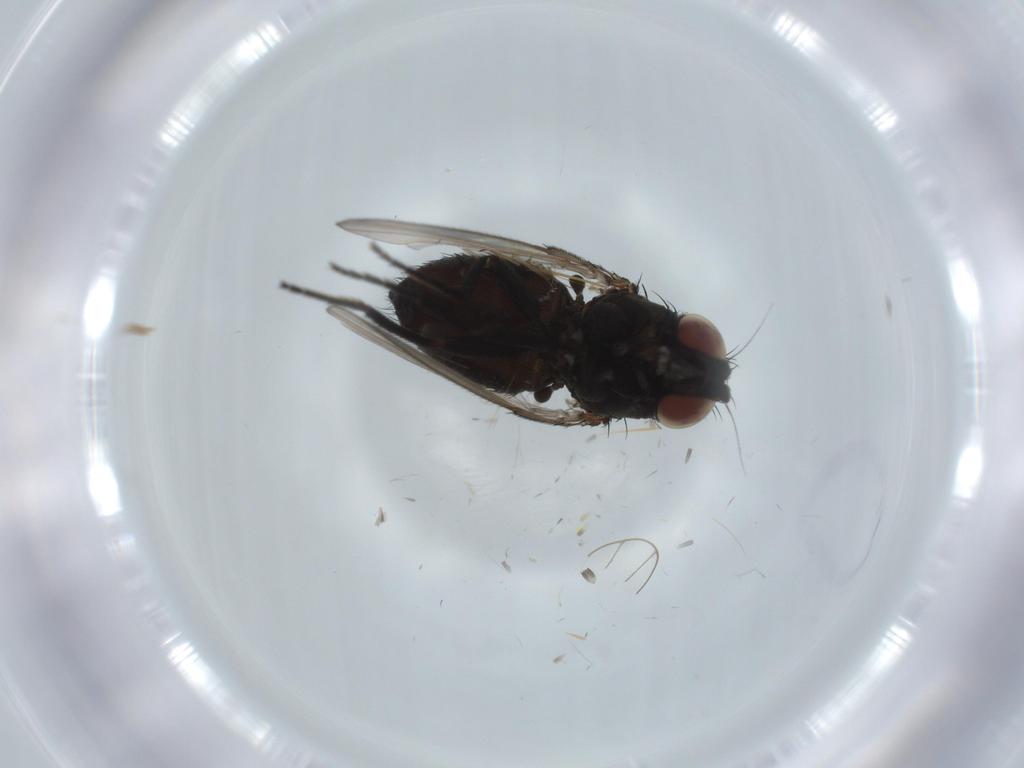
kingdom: Animalia
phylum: Arthropoda
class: Insecta
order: Diptera
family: Milichiidae
